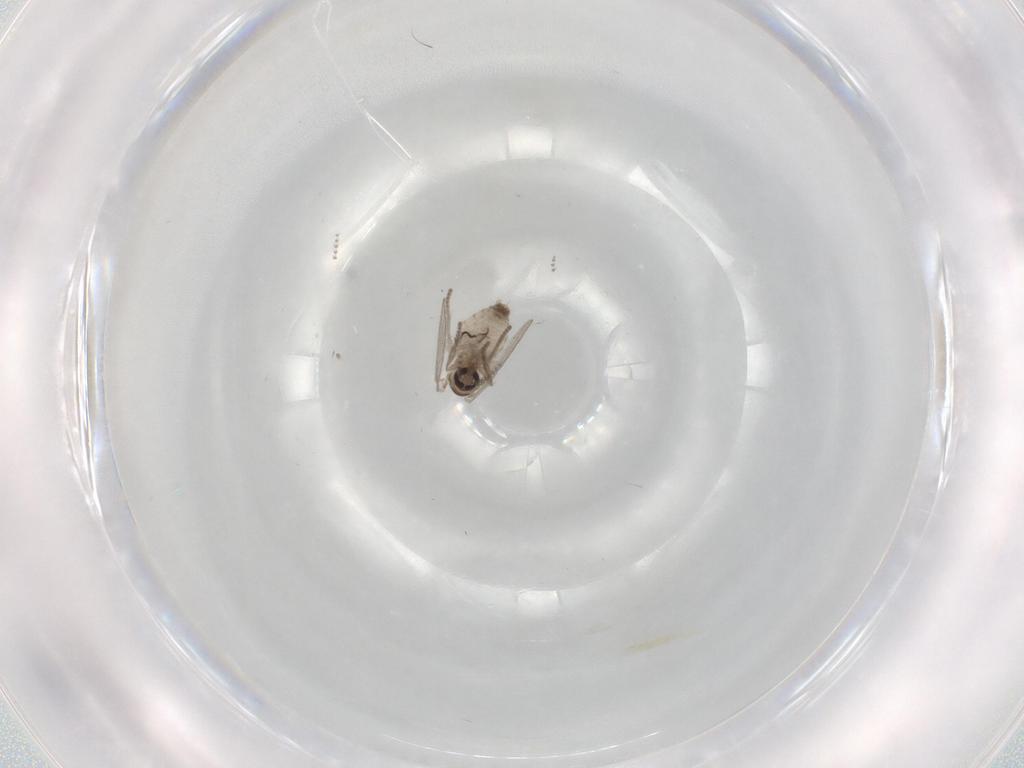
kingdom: Animalia
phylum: Arthropoda
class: Insecta
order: Diptera
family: Psychodidae
